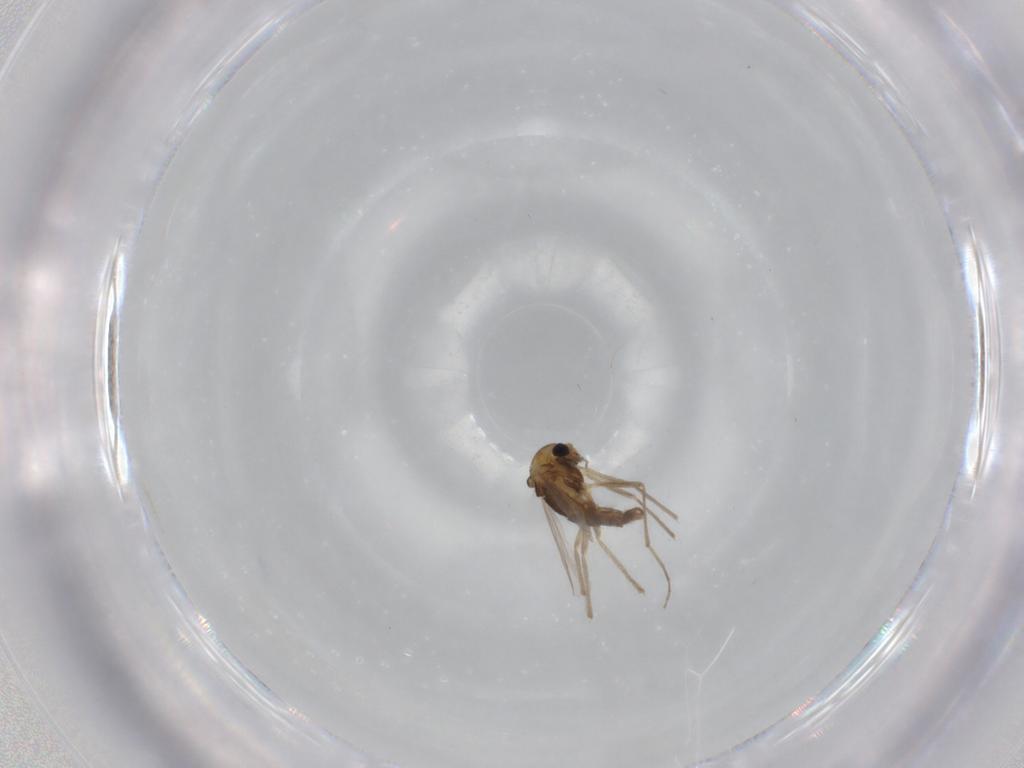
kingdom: Animalia
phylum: Arthropoda
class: Insecta
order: Diptera
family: Chironomidae
